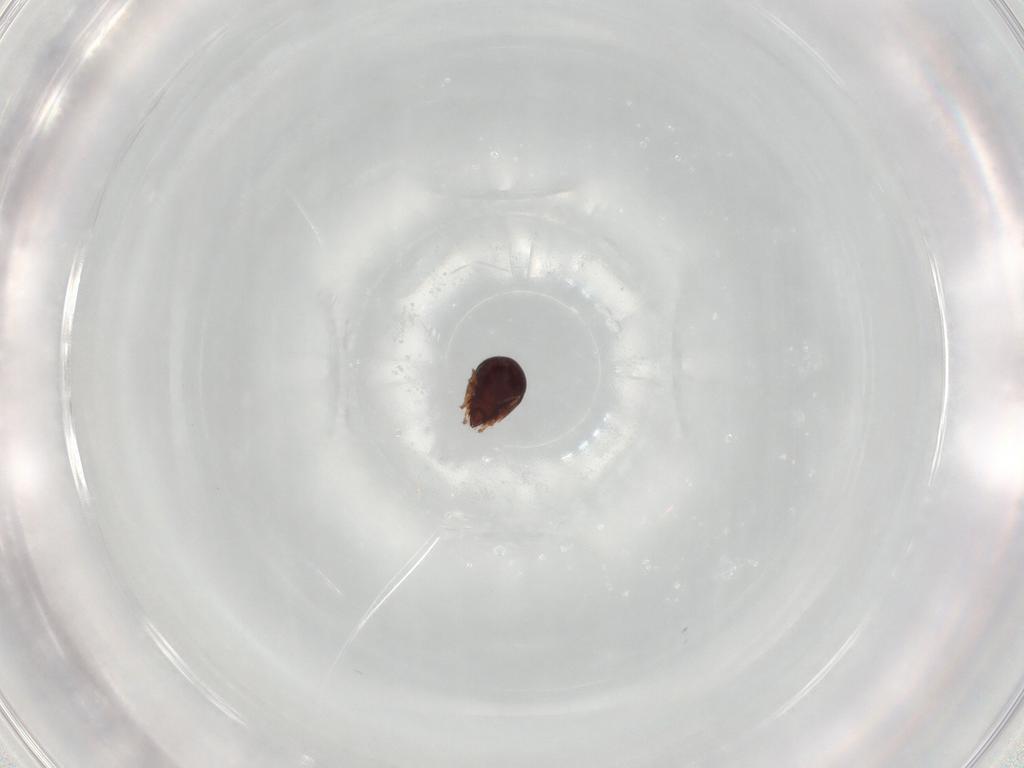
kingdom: Animalia
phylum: Arthropoda
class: Arachnida
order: Sarcoptiformes
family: Ceratozetidae
